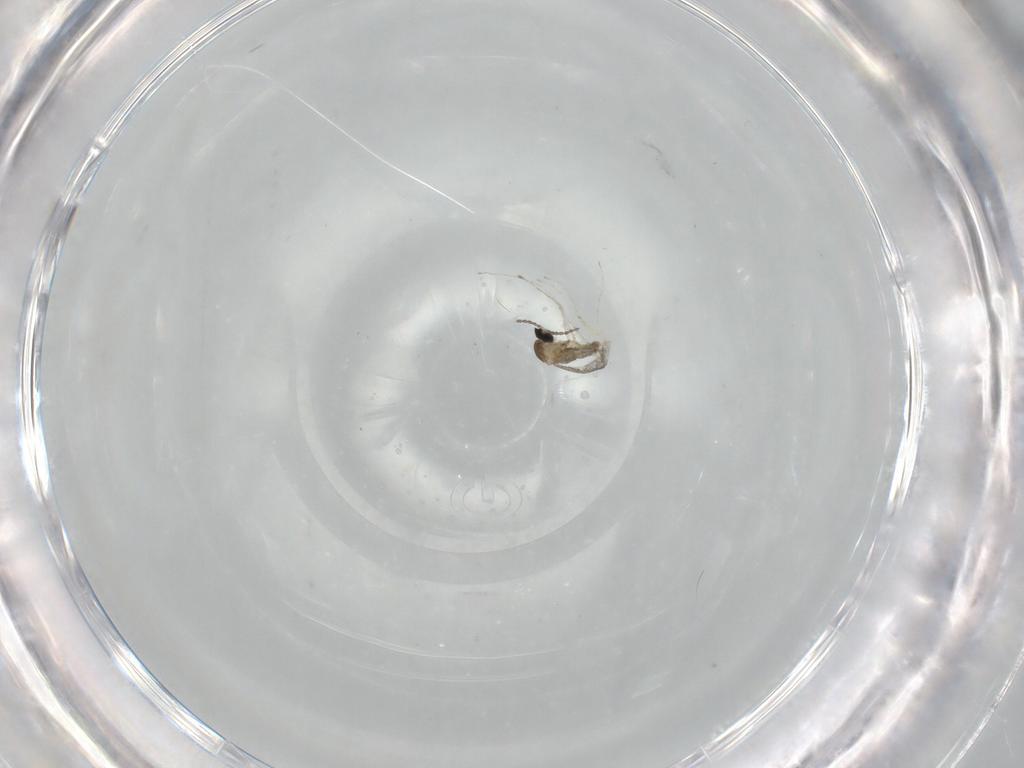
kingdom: Animalia
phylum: Arthropoda
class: Insecta
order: Diptera
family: Cecidomyiidae
